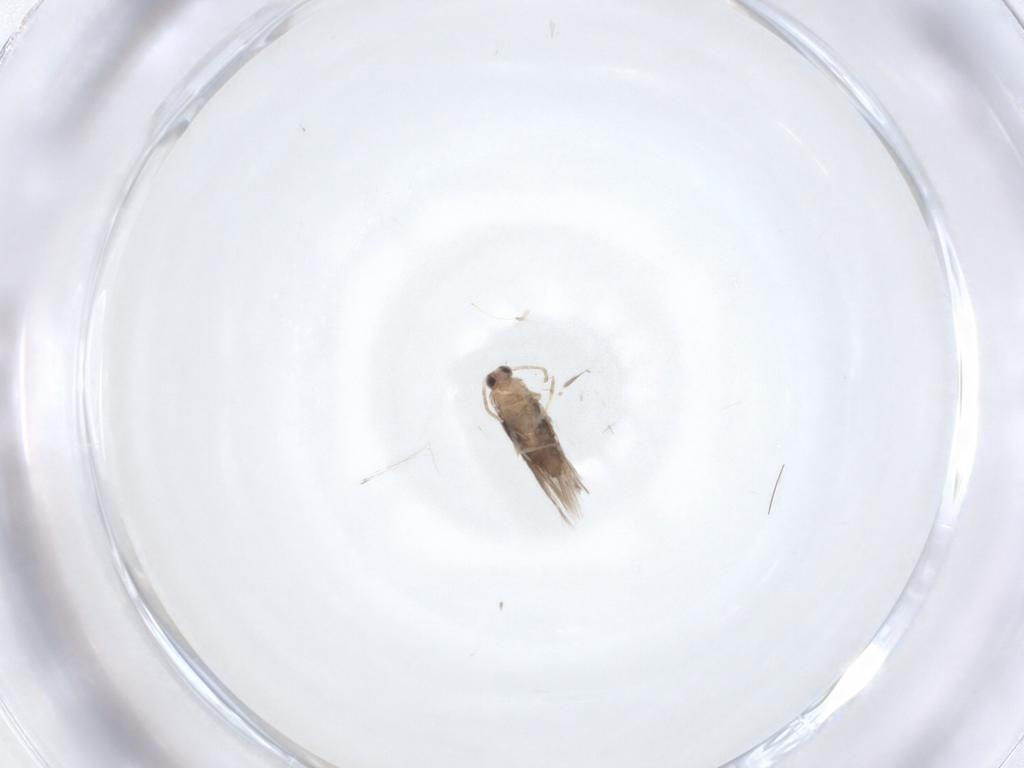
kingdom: Animalia
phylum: Arthropoda
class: Insecta
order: Lepidoptera
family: Nepticulidae
